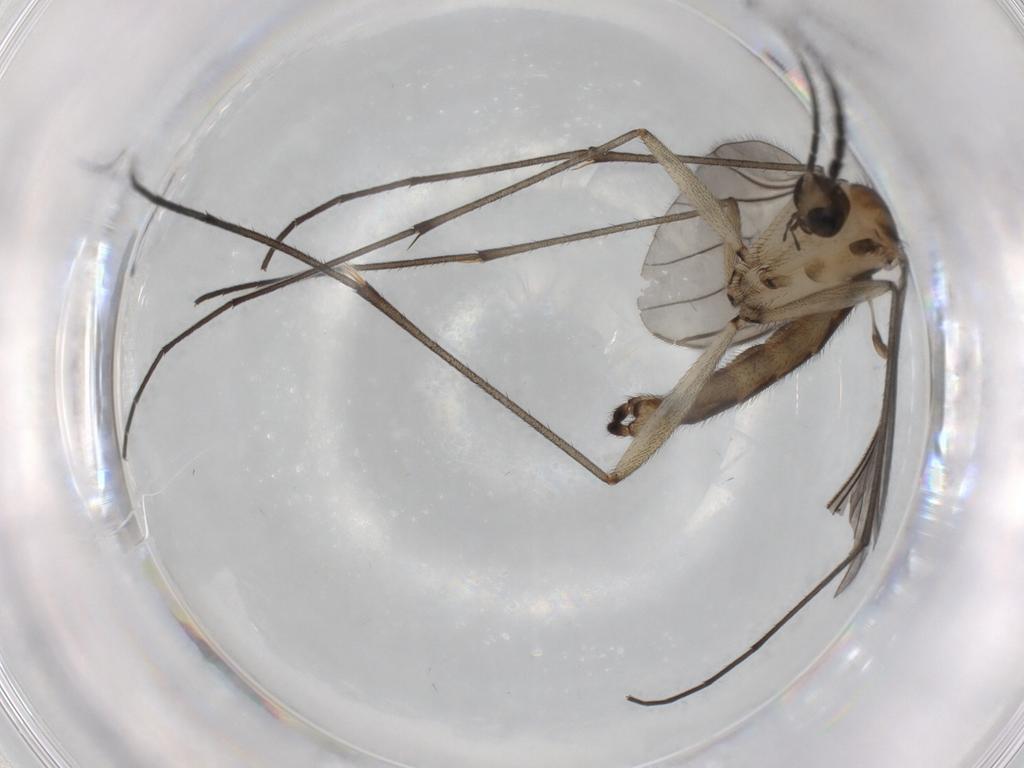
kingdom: Animalia
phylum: Arthropoda
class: Insecta
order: Diptera
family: Sciaridae
